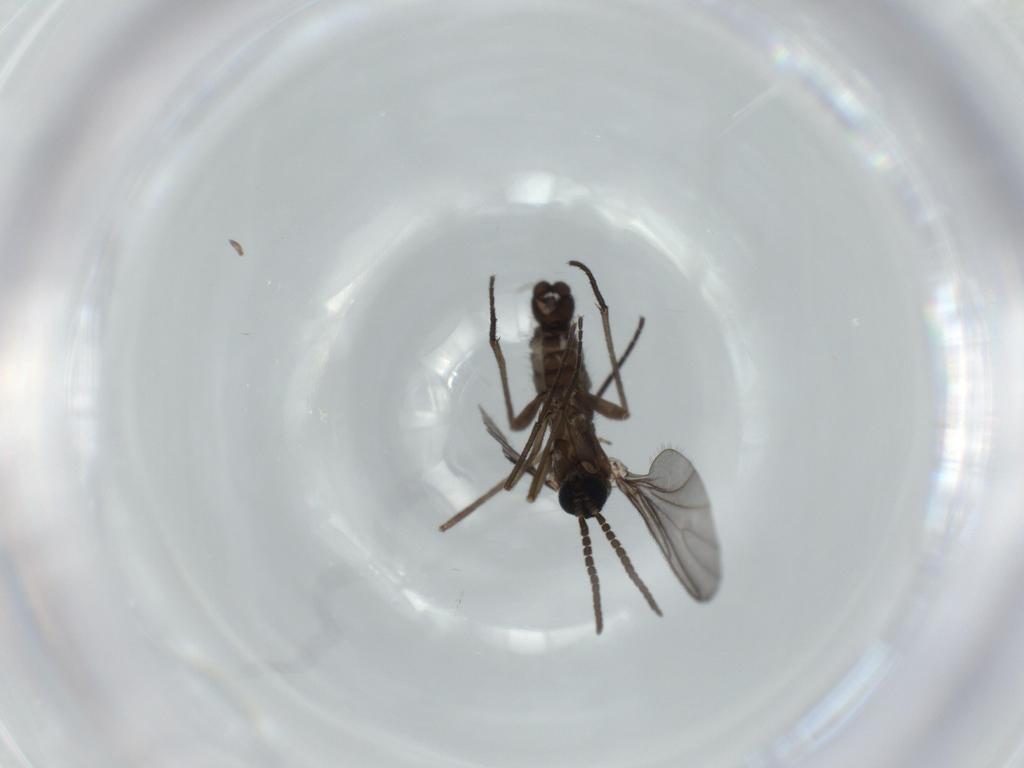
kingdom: Animalia
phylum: Arthropoda
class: Insecta
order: Diptera
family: Sciaridae
